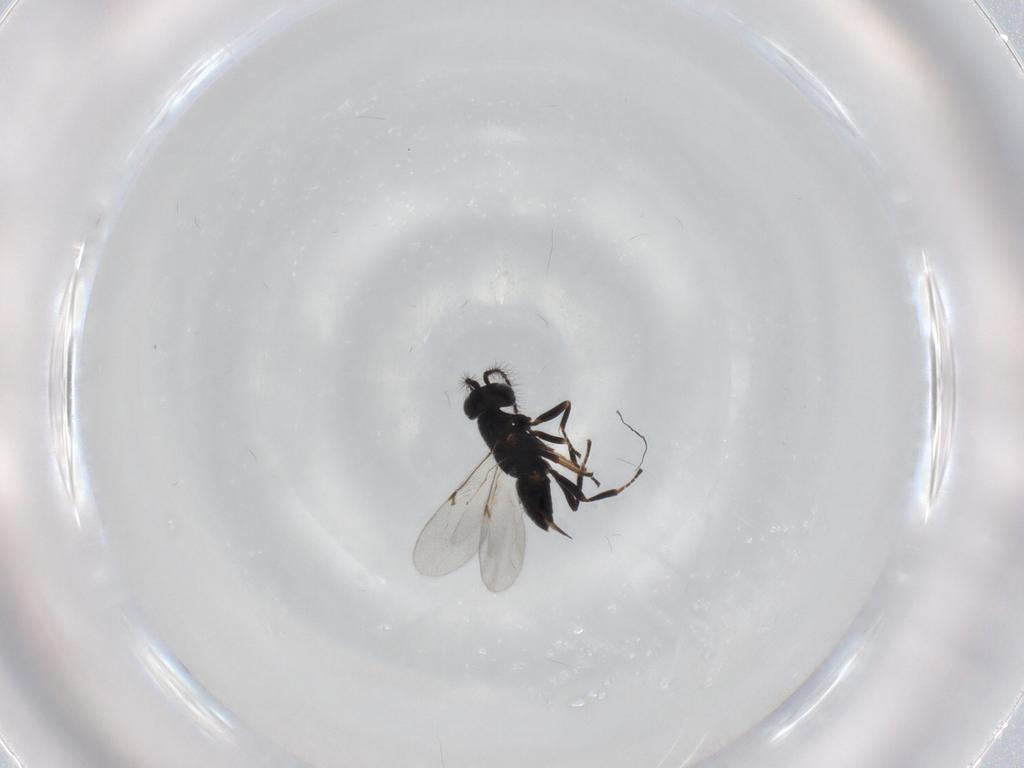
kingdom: Animalia
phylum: Arthropoda
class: Insecta
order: Hymenoptera
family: Encyrtidae
